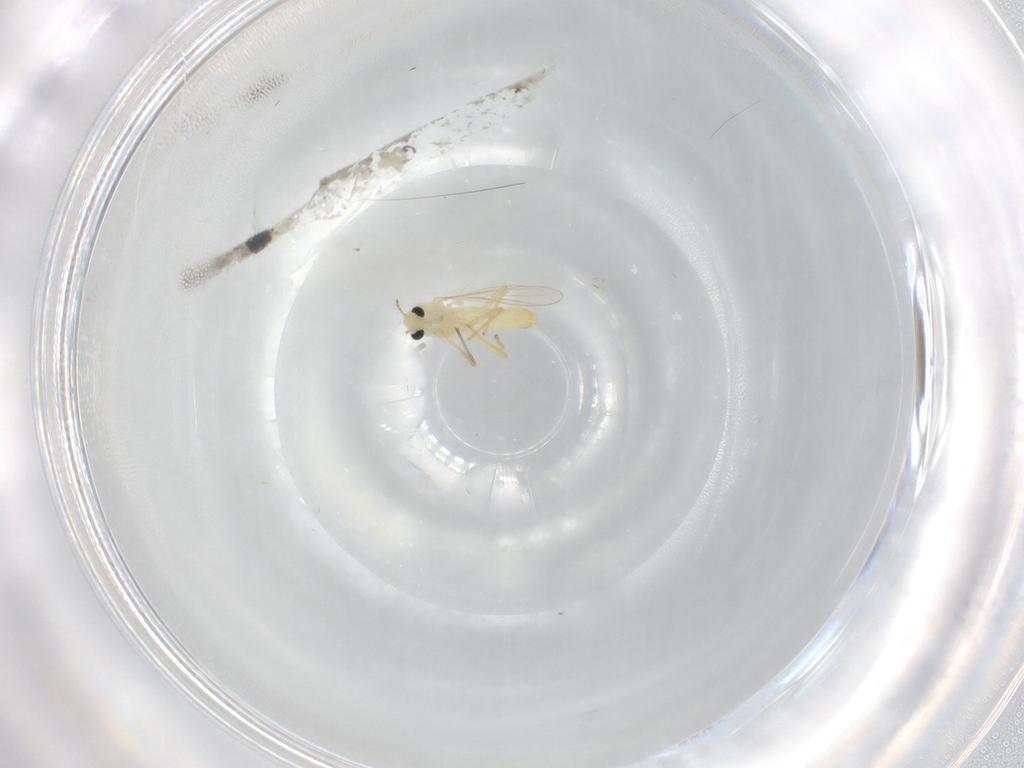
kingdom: Animalia
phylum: Arthropoda
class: Insecta
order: Diptera
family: Chironomidae
